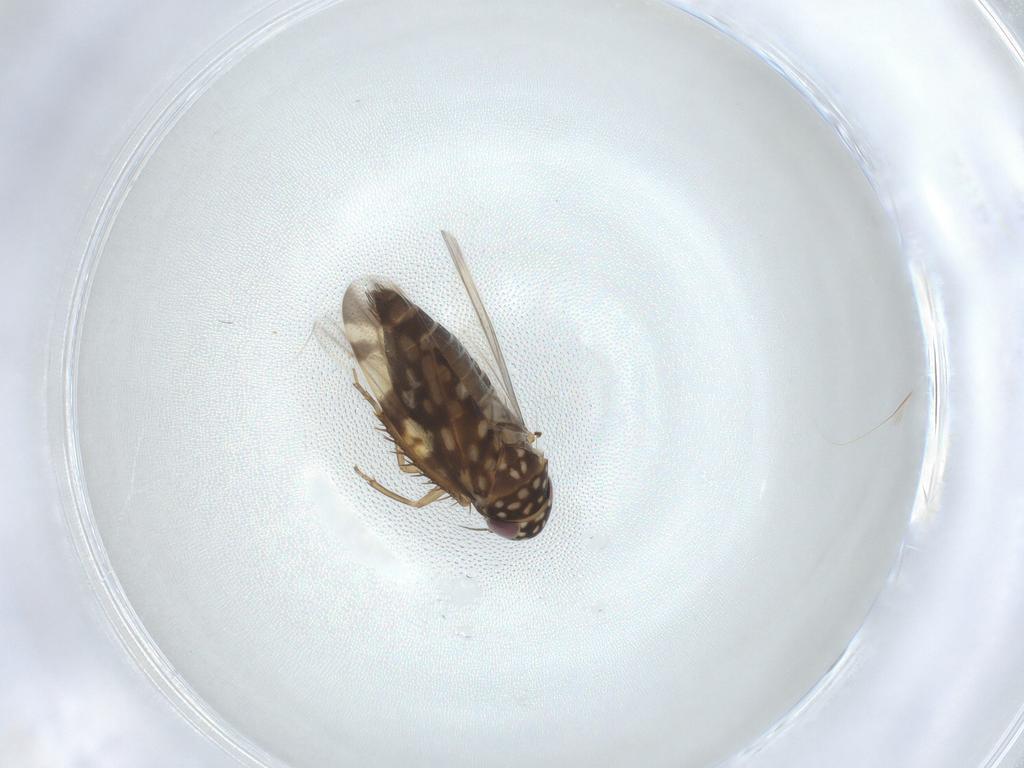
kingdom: Animalia
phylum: Arthropoda
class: Insecta
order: Hemiptera
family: Cicadellidae
